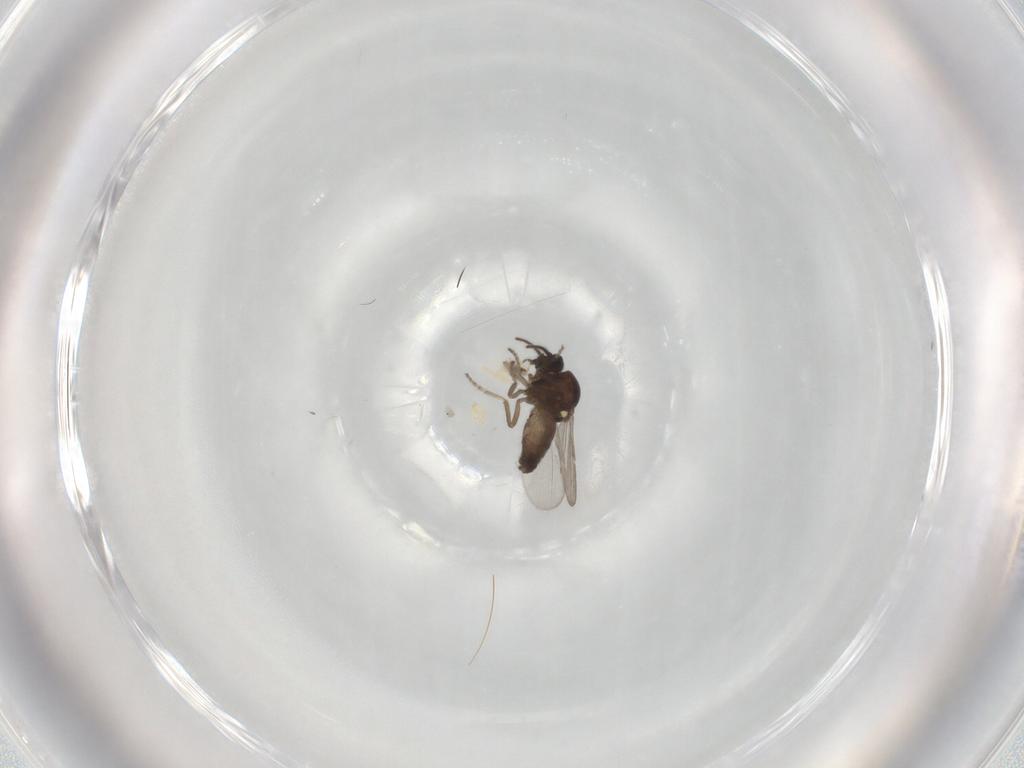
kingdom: Animalia
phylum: Arthropoda
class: Insecta
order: Diptera
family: Ceratopogonidae
